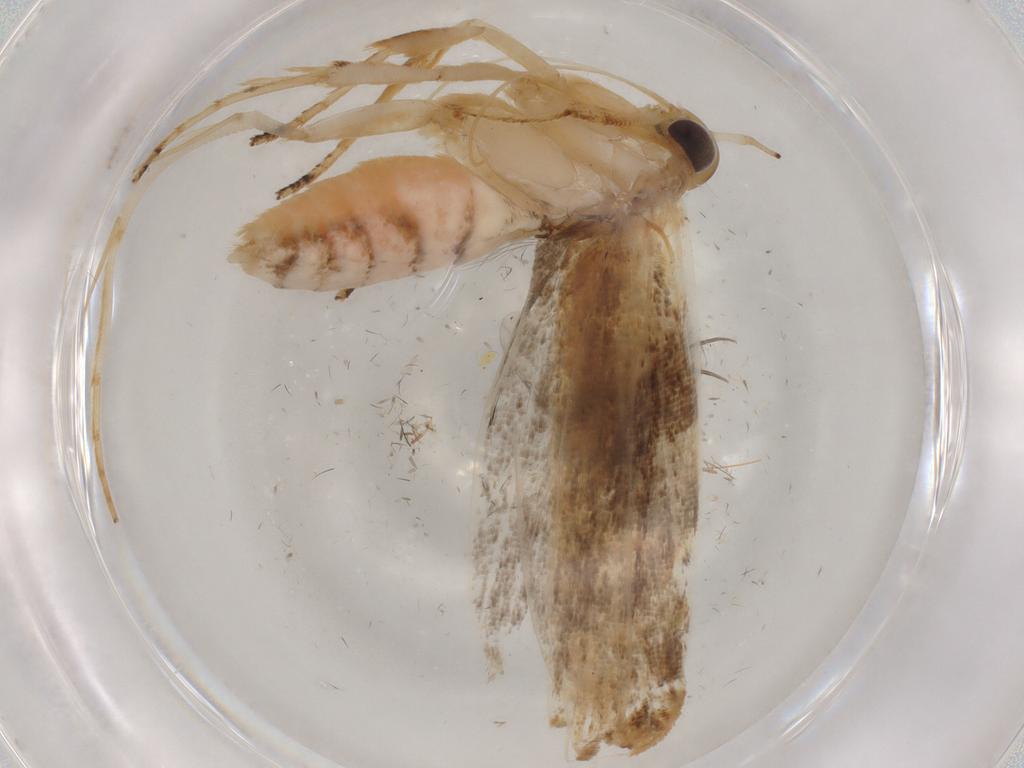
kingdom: Animalia
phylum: Arthropoda
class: Insecta
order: Lepidoptera
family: Gelechiidae
